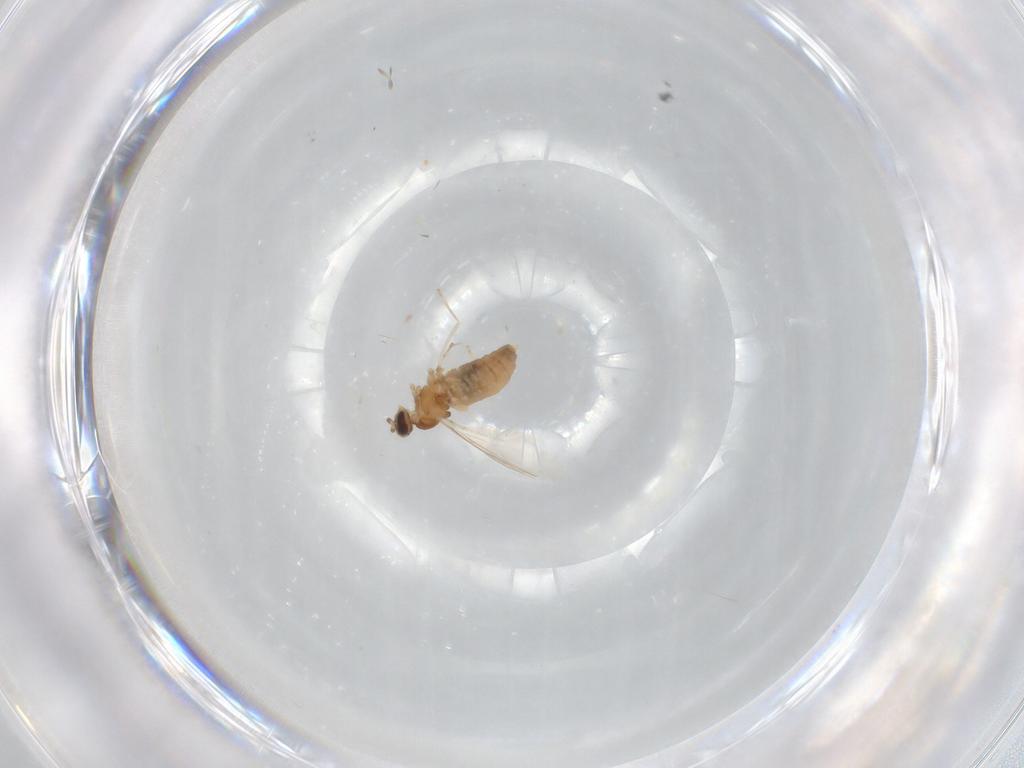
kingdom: Animalia
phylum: Arthropoda
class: Insecta
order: Diptera
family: Cecidomyiidae
